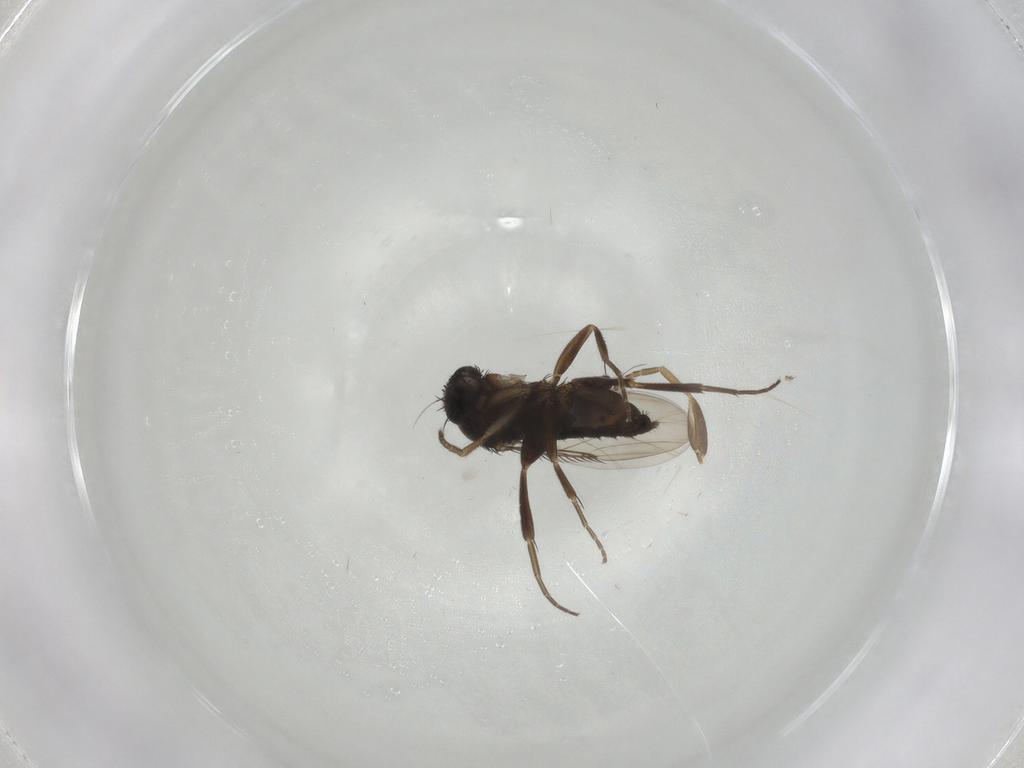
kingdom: Animalia
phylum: Arthropoda
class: Insecta
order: Diptera
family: Phoridae
